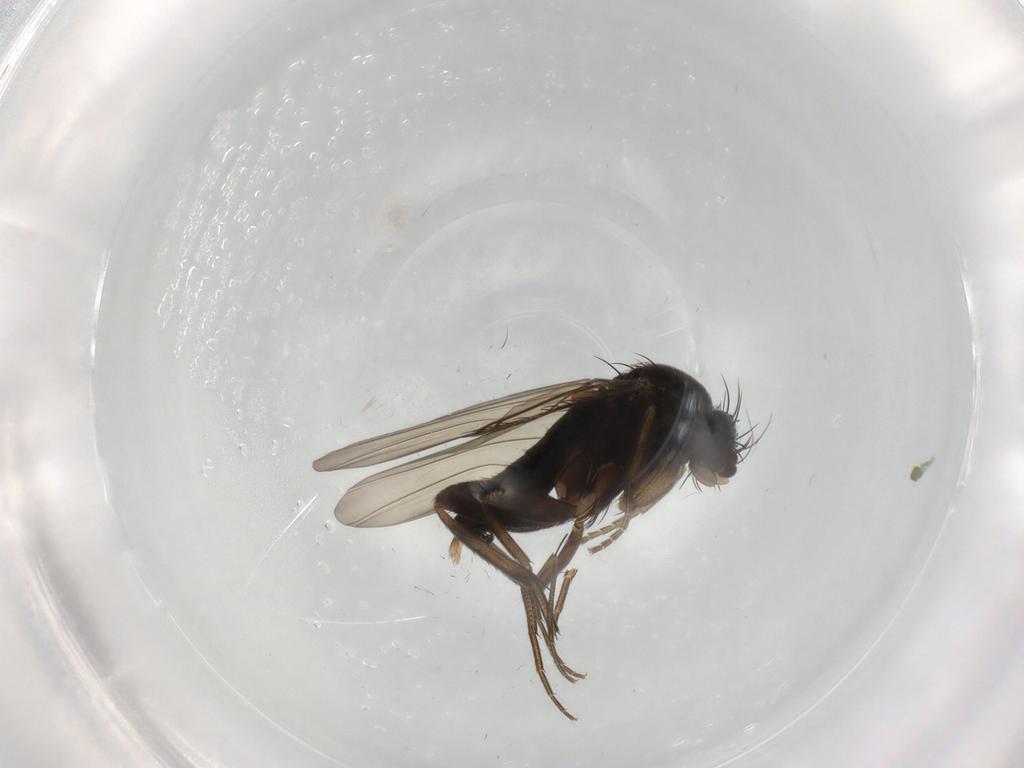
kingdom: Animalia
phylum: Arthropoda
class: Insecta
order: Diptera
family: Phoridae
